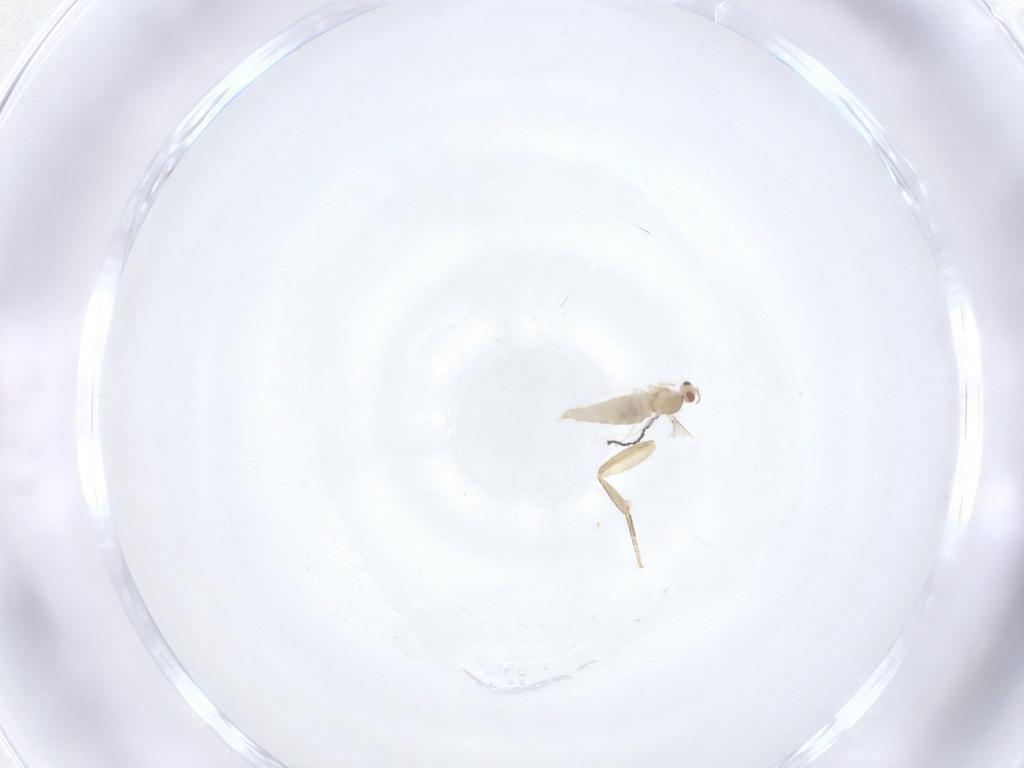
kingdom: Animalia
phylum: Arthropoda
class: Insecta
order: Diptera
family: Cecidomyiidae
